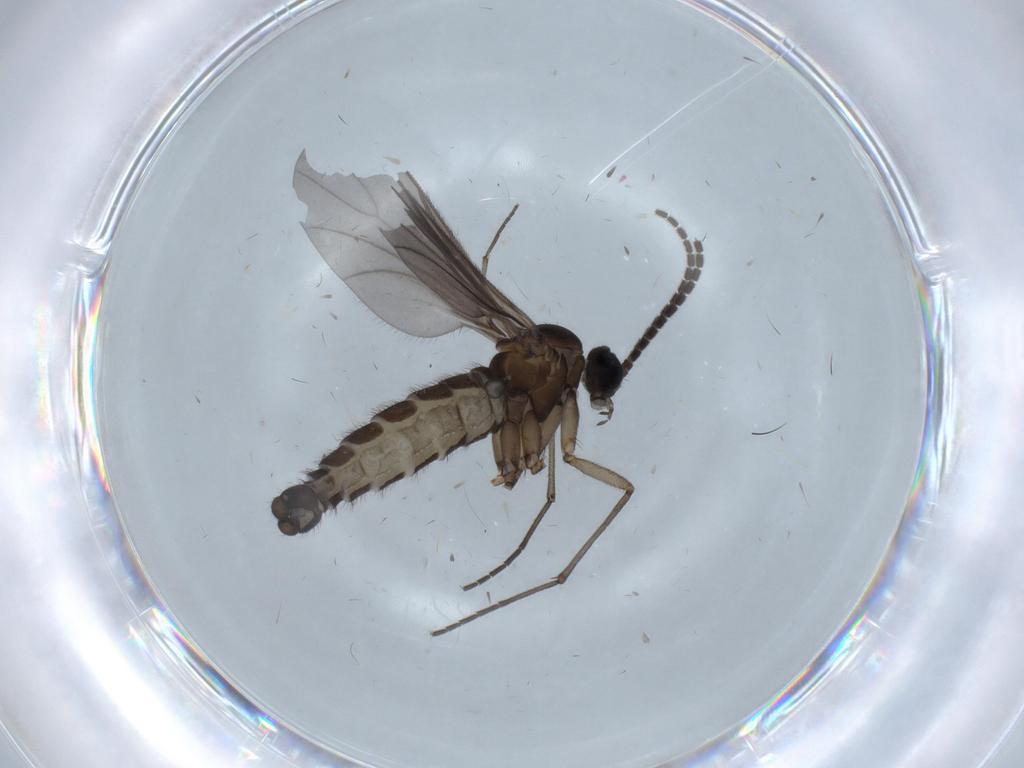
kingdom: Animalia
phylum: Arthropoda
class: Insecta
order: Diptera
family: Sciaridae
